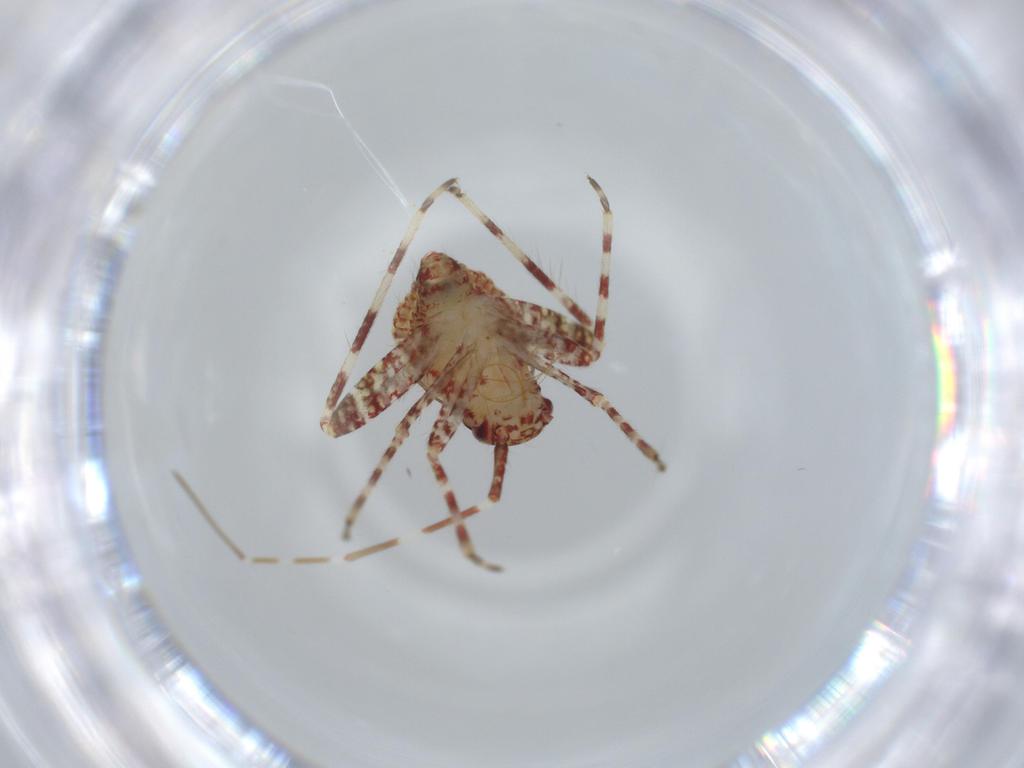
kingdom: Animalia
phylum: Arthropoda
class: Insecta
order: Hemiptera
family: Miridae
